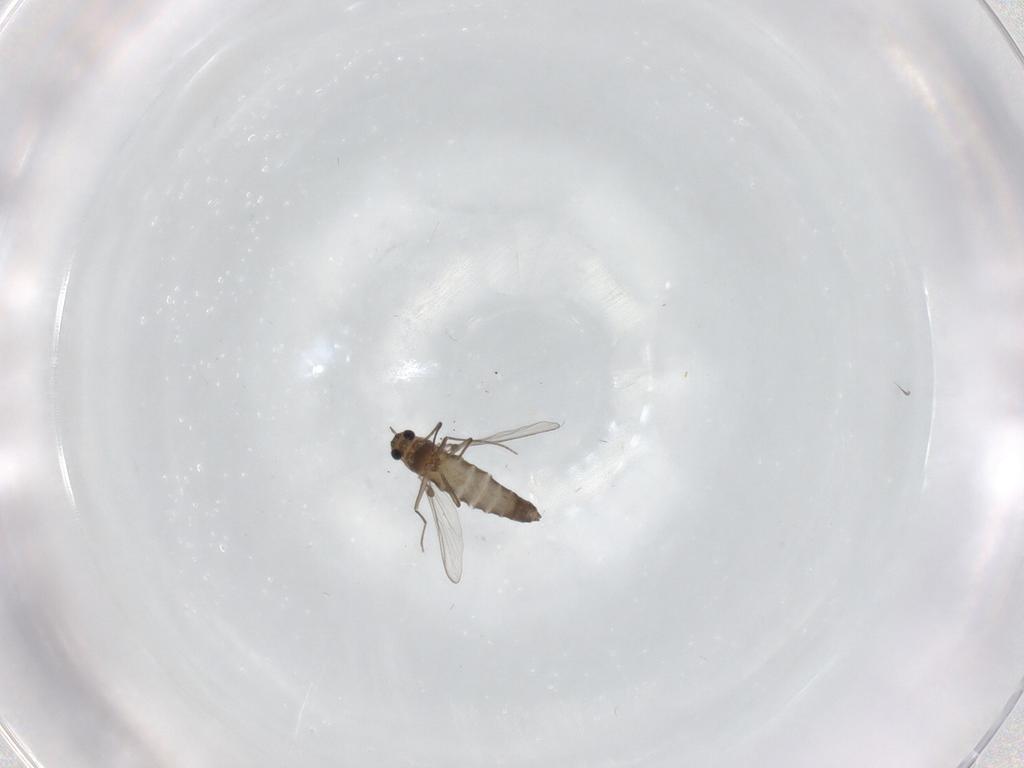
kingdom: Animalia
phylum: Arthropoda
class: Insecta
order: Diptera
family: Chironomidae
